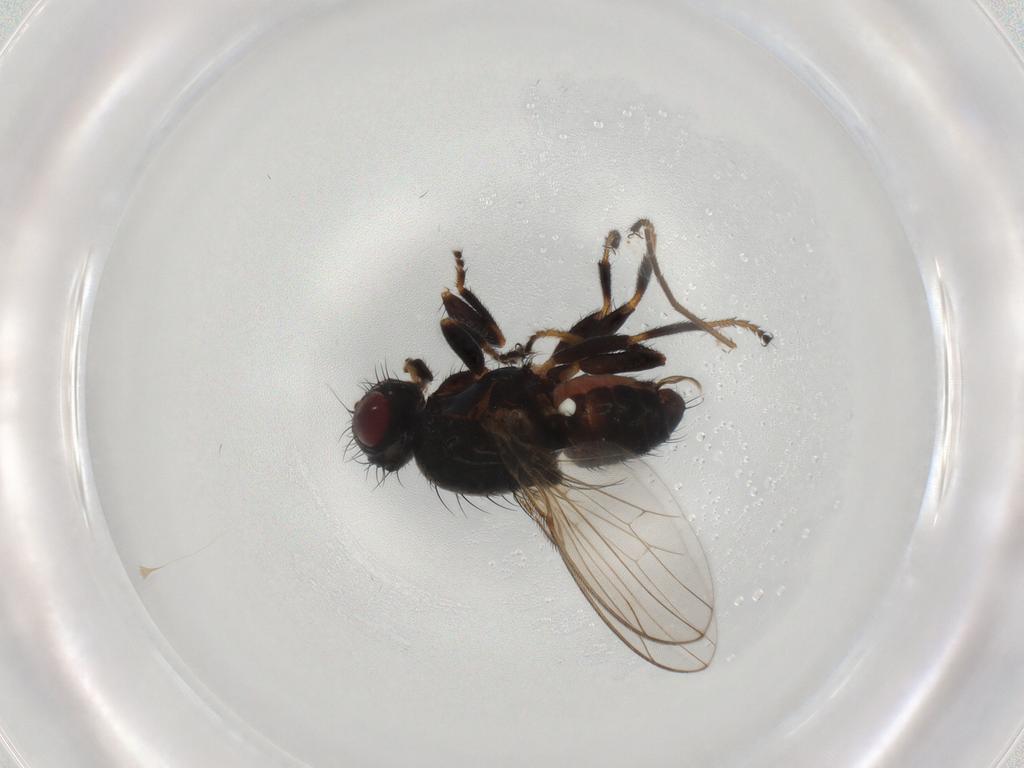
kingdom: Animalia
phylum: Arthropoda
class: Insecta
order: Diptera
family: Carnidae
